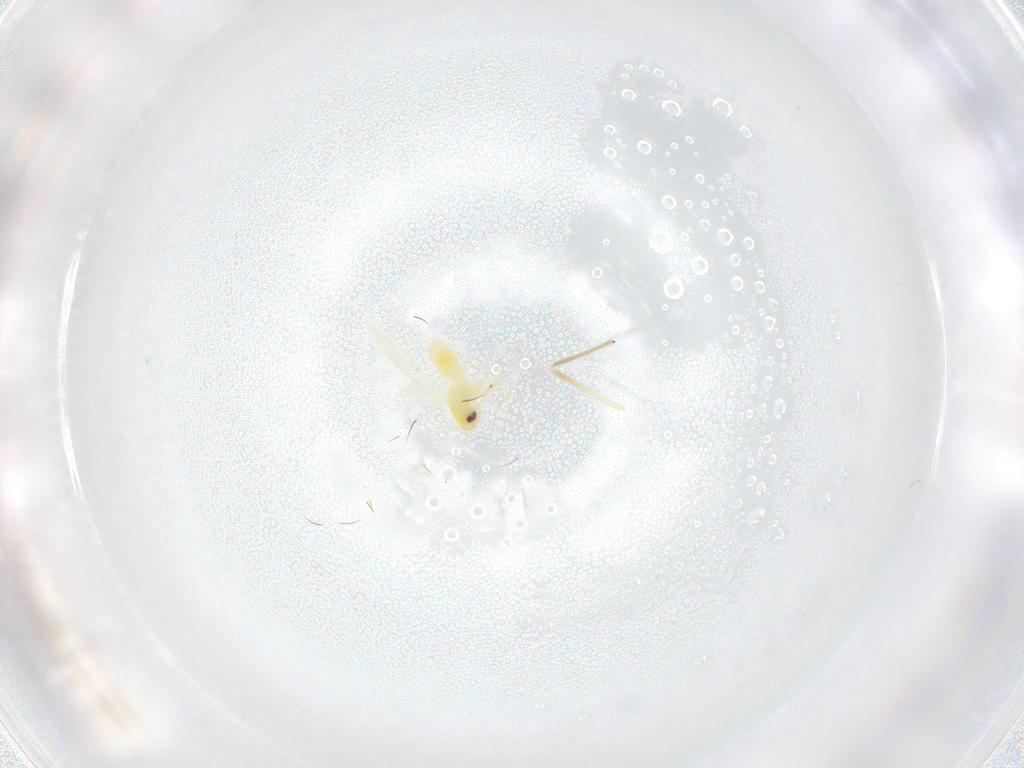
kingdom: Animalia
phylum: Arthropoda
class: Insecta
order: Hemiptera
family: Aleyrodidae
